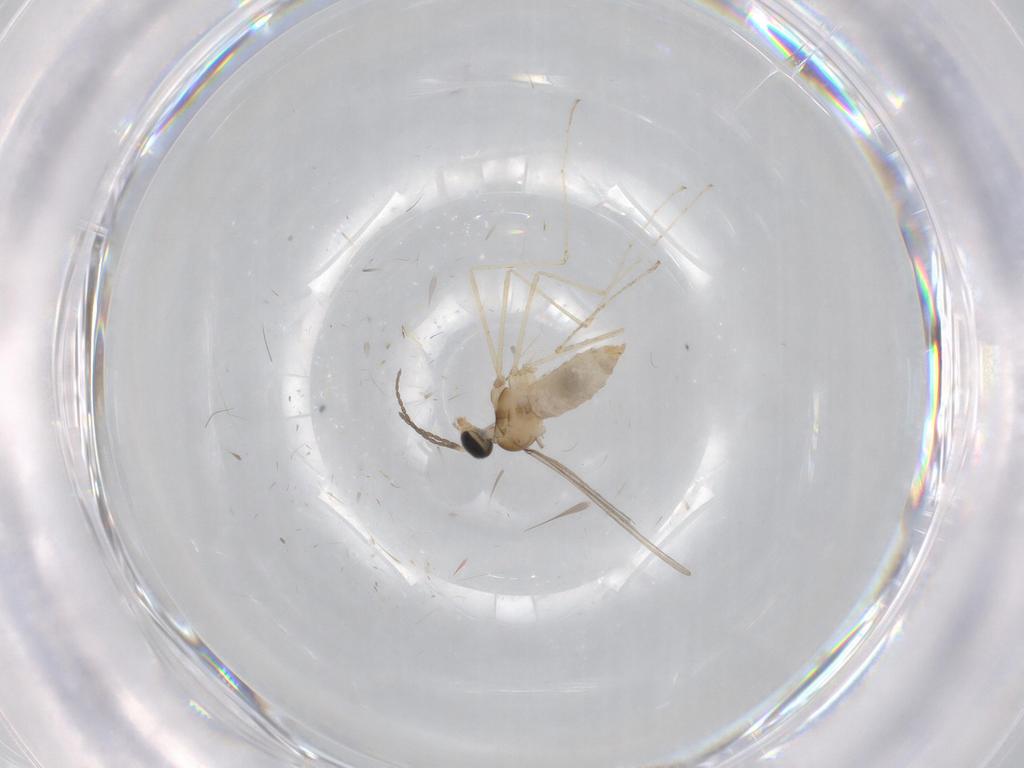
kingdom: Animalia
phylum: Arthropoda
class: Insecta
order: Diptera
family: Cecidomyiidae
